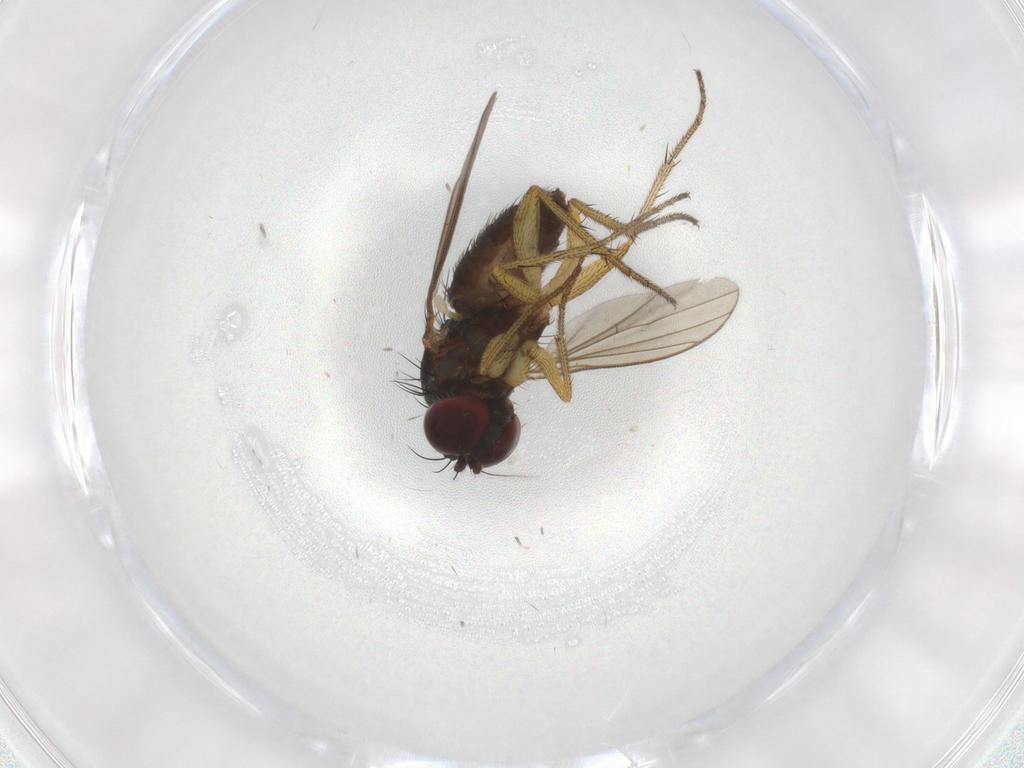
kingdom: Animalia
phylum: Arthropoda
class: Insecta
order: Diptera
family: Dolichopodidae
